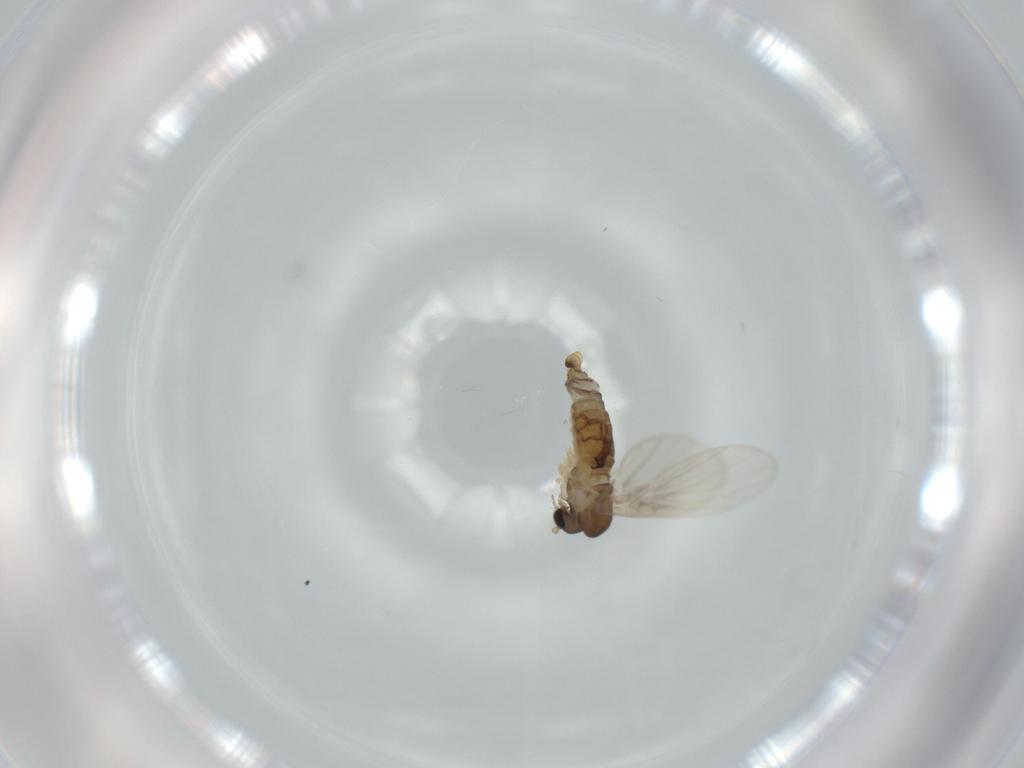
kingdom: Animalia
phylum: Arthropoda
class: Insecta
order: Diptera
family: Psychodidae
